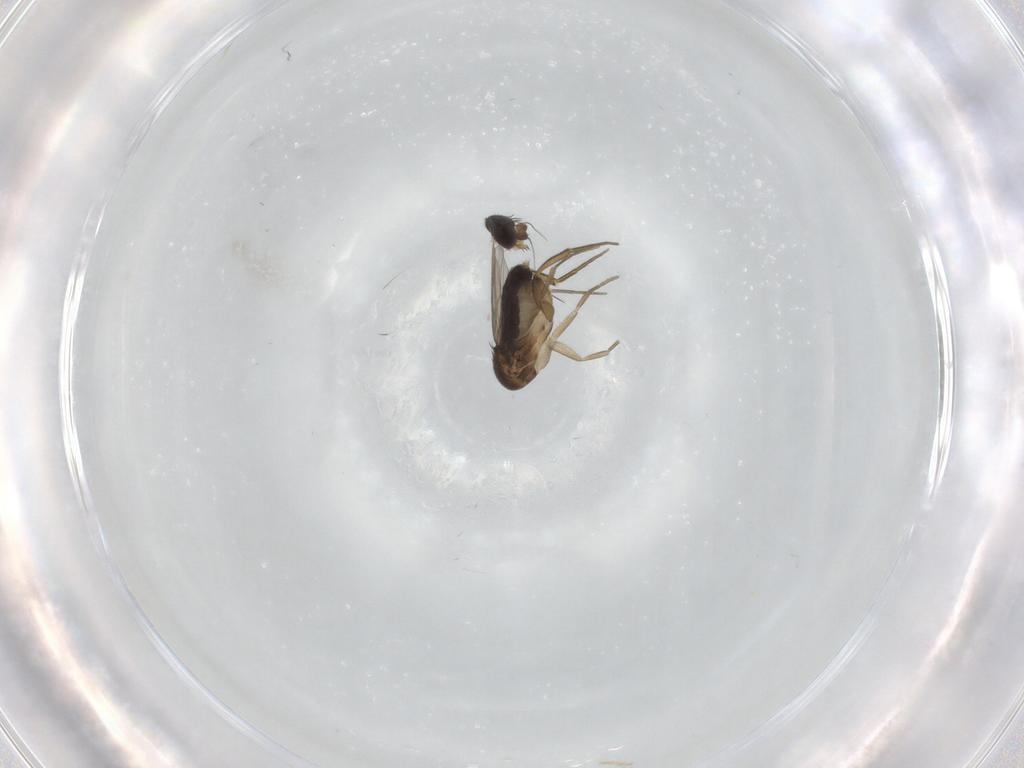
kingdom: Animalia
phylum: Arthropoda
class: Insecta
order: Diptera
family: Phoridae
